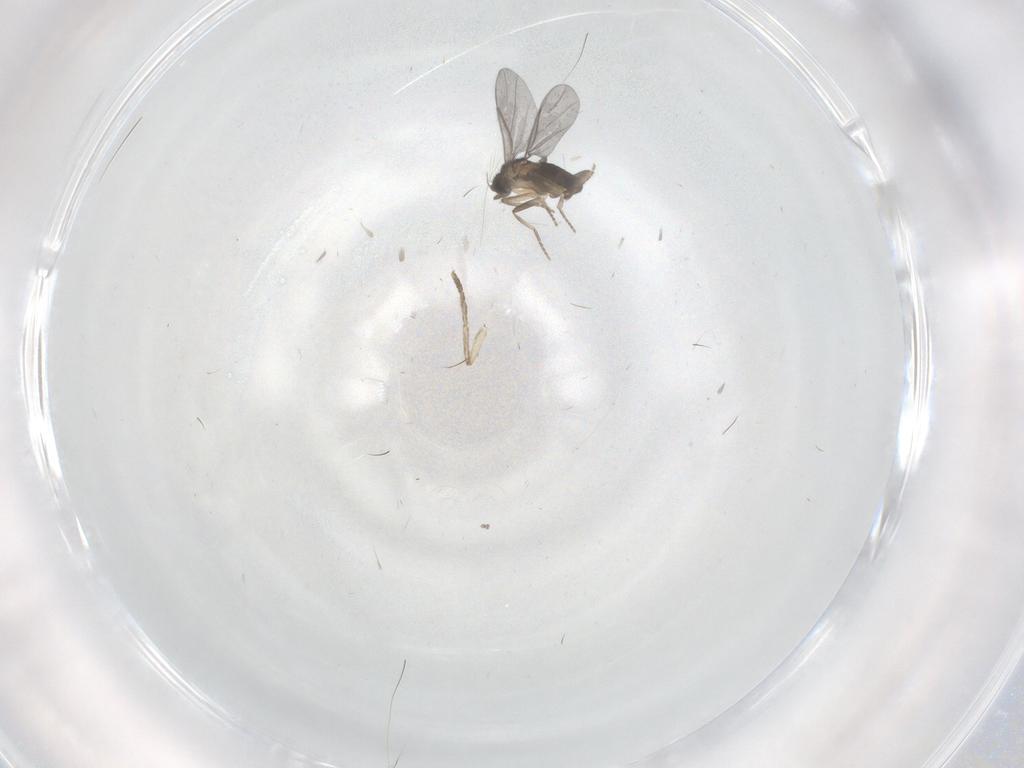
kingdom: Animalia
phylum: Arthropoda
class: Insecta
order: Diptera
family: Cecidomyiidae
